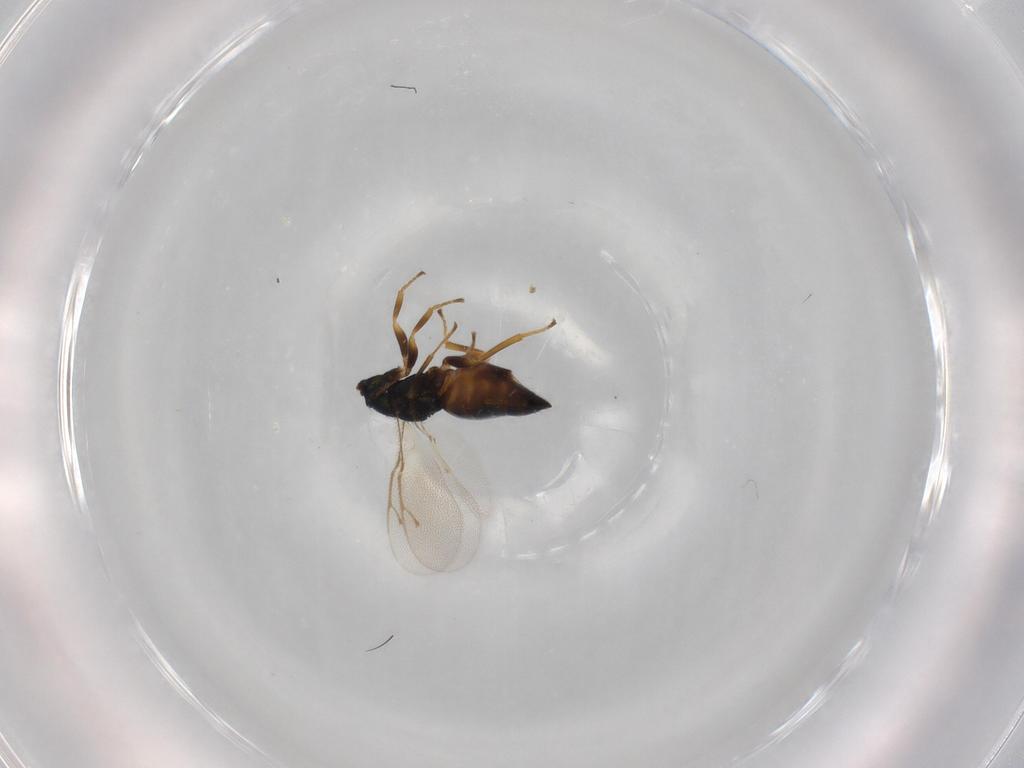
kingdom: Animalia
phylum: Arthropoda
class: Insecta
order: Hymenoptera
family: Pteromalidae
